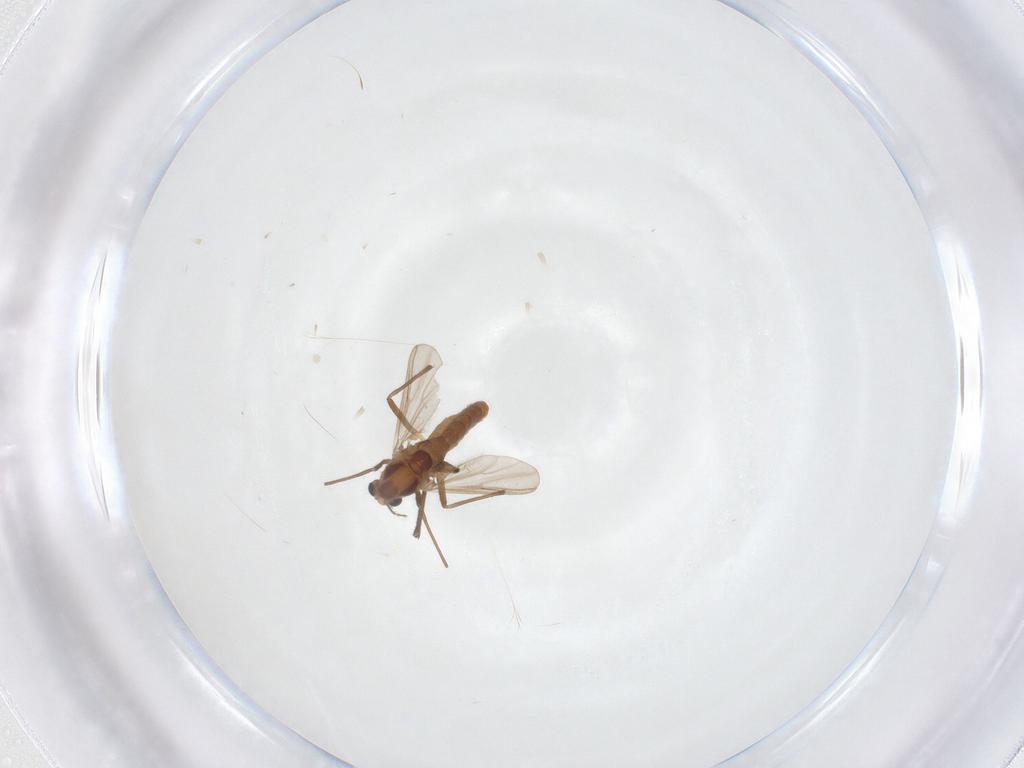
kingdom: Animalia
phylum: Arthropoda
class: Insecta
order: Diptera
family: Chironomidae
